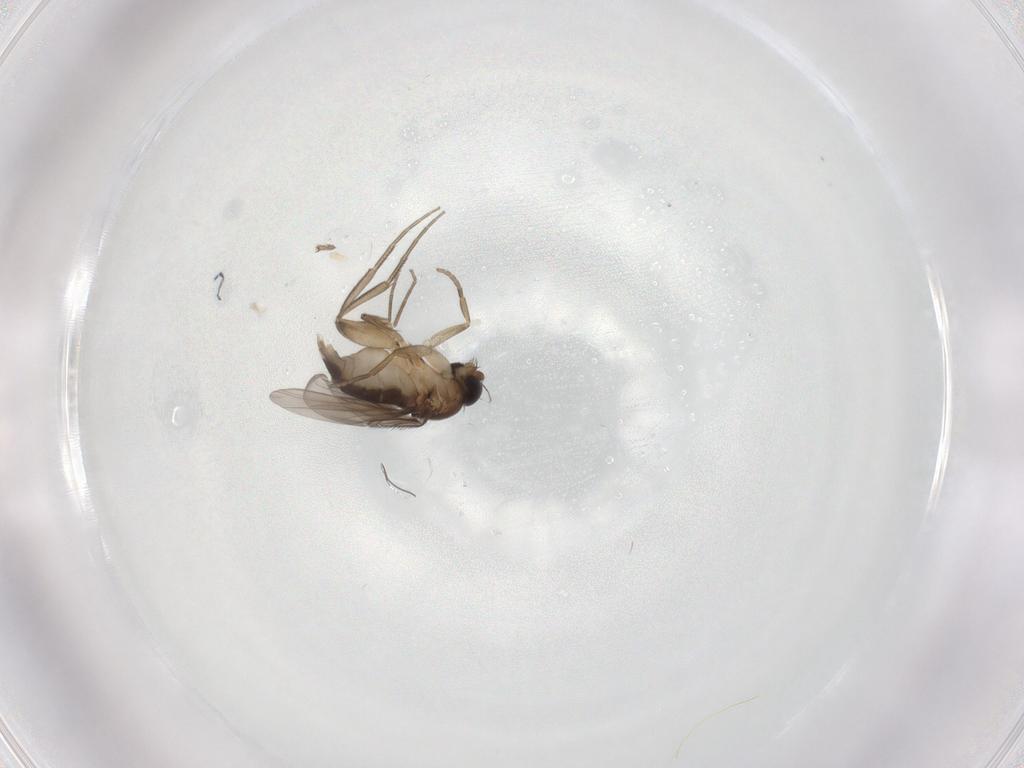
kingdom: Animalia
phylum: Arthropoda
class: Insecta
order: Diptera
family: Phoridae
